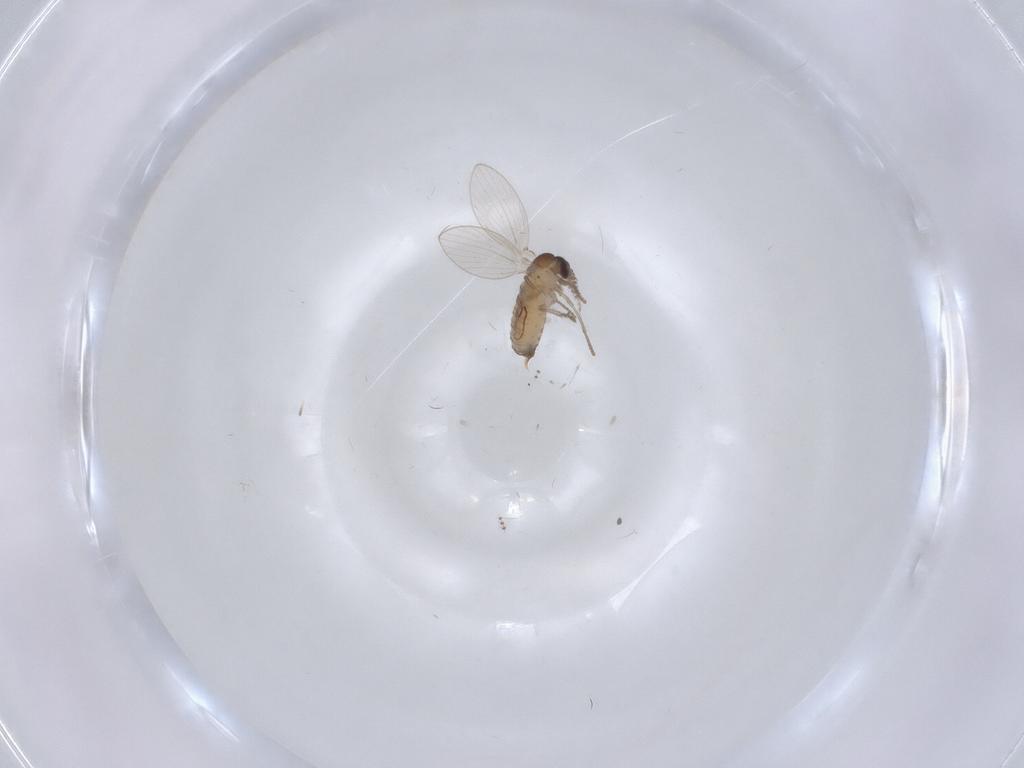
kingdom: Animalia
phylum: Arthropoda
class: Insecta
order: Diptera
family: Psychodidae
